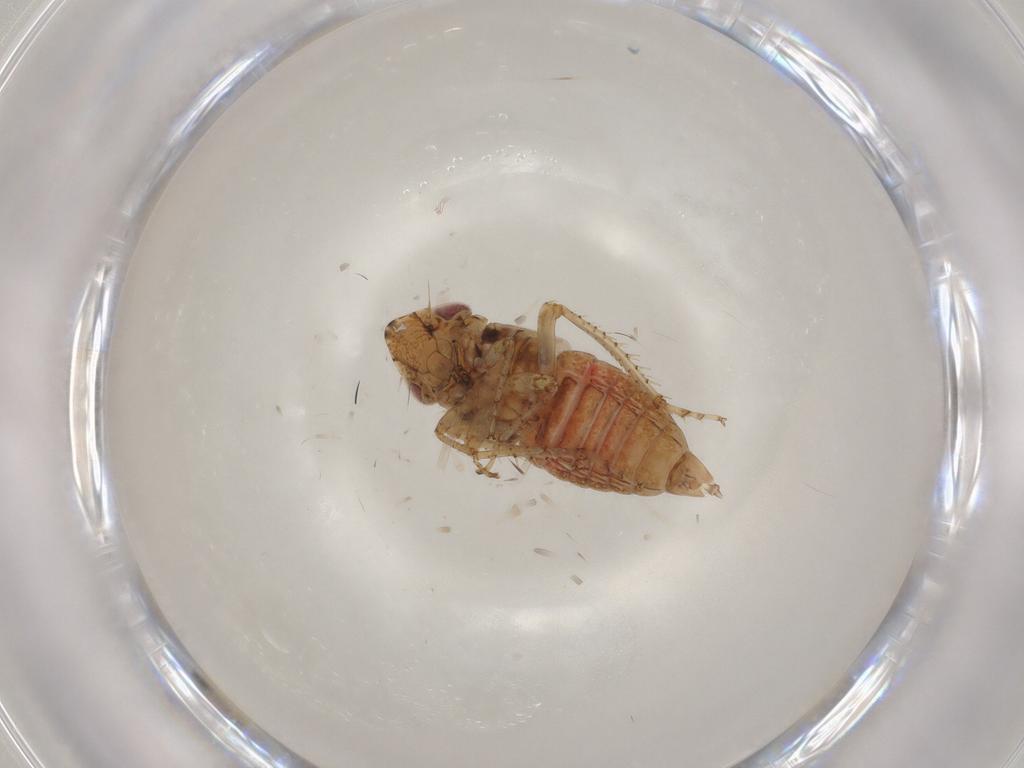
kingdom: Animalia
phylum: Arthropoda
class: Insecta
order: Hemiptera
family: Cicadellidae
